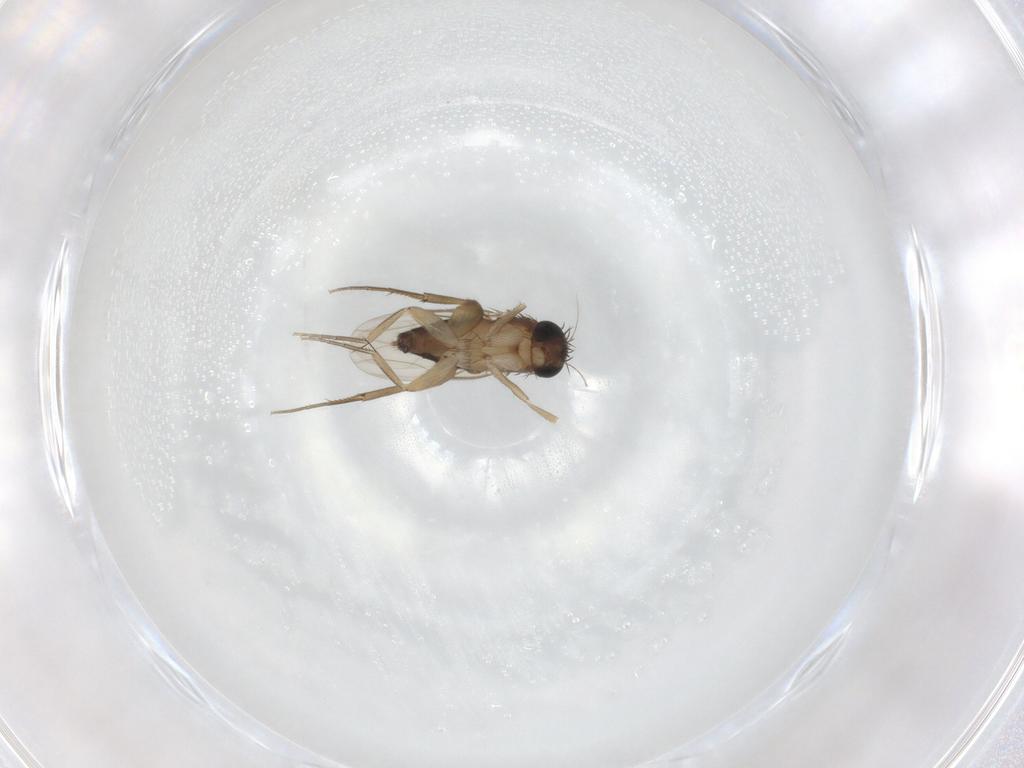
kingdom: Animalia
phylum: Arthropoda
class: Insecta
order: Diptera
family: Phoridae
